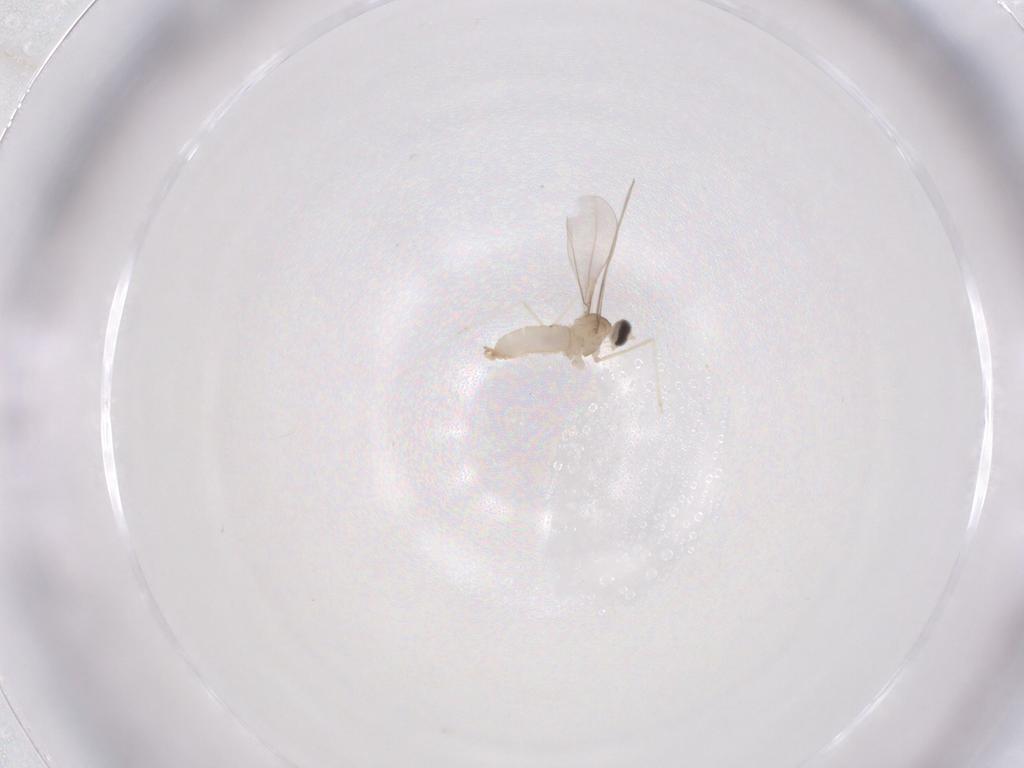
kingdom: Animalia
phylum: Arthropoda
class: Insecta
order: Diptera
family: Cecidomyiidae
